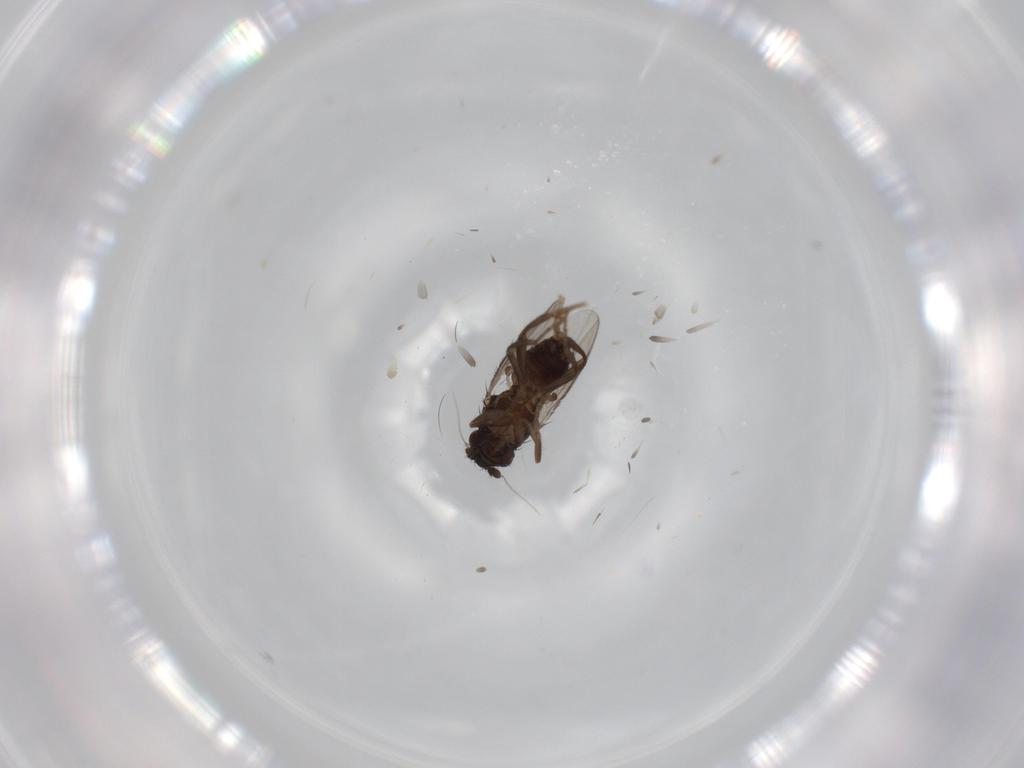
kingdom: Animalia
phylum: Arthropoda
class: Insecta
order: Diptera
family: Sphaeroceridae
